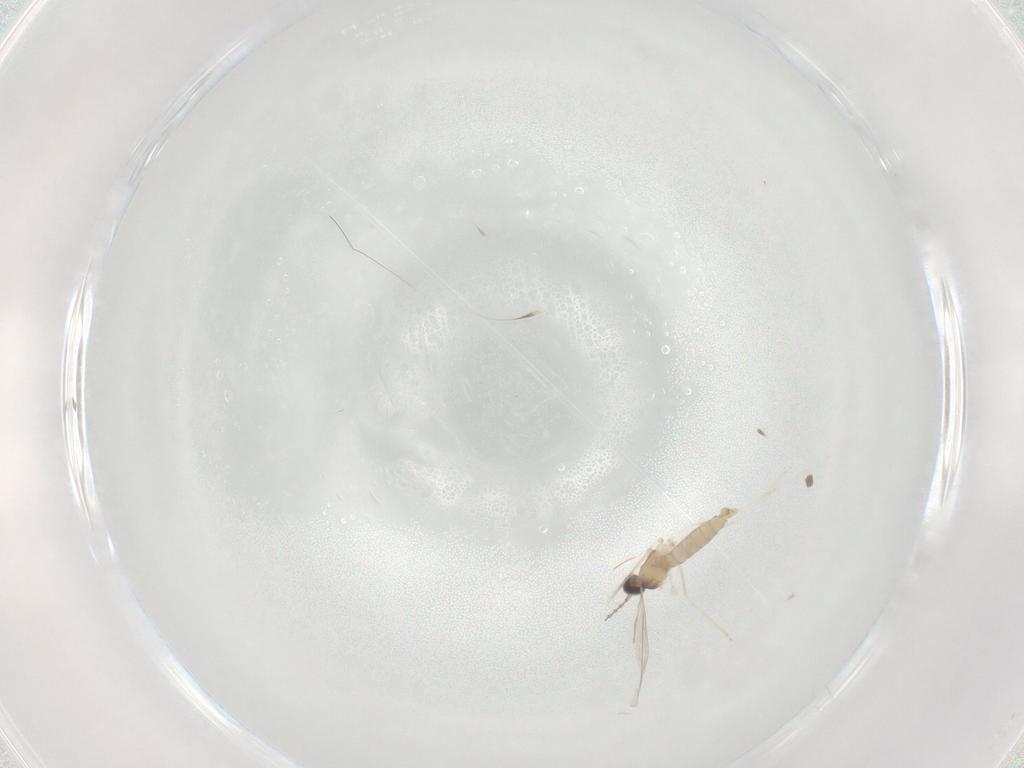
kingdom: Animalia
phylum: Arthropoda
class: Insecta
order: Diptera
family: Cecidomyiidae
